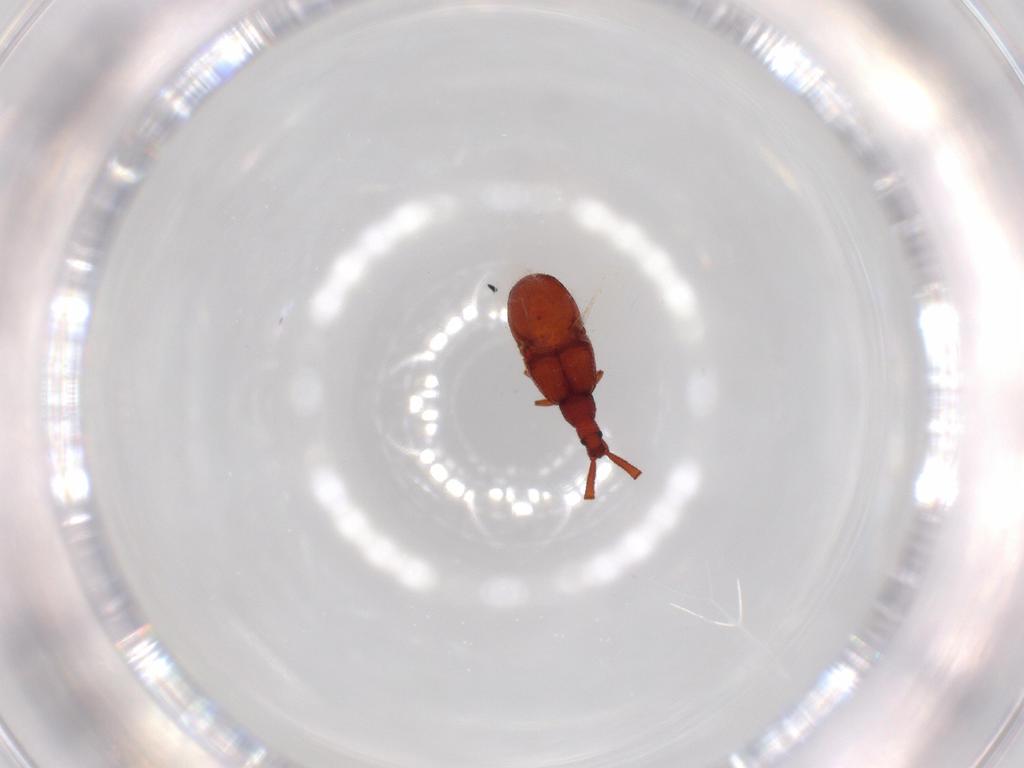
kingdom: Animalia
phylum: Arthropoda
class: Insecta
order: Coleoptera
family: Staphylinidae
